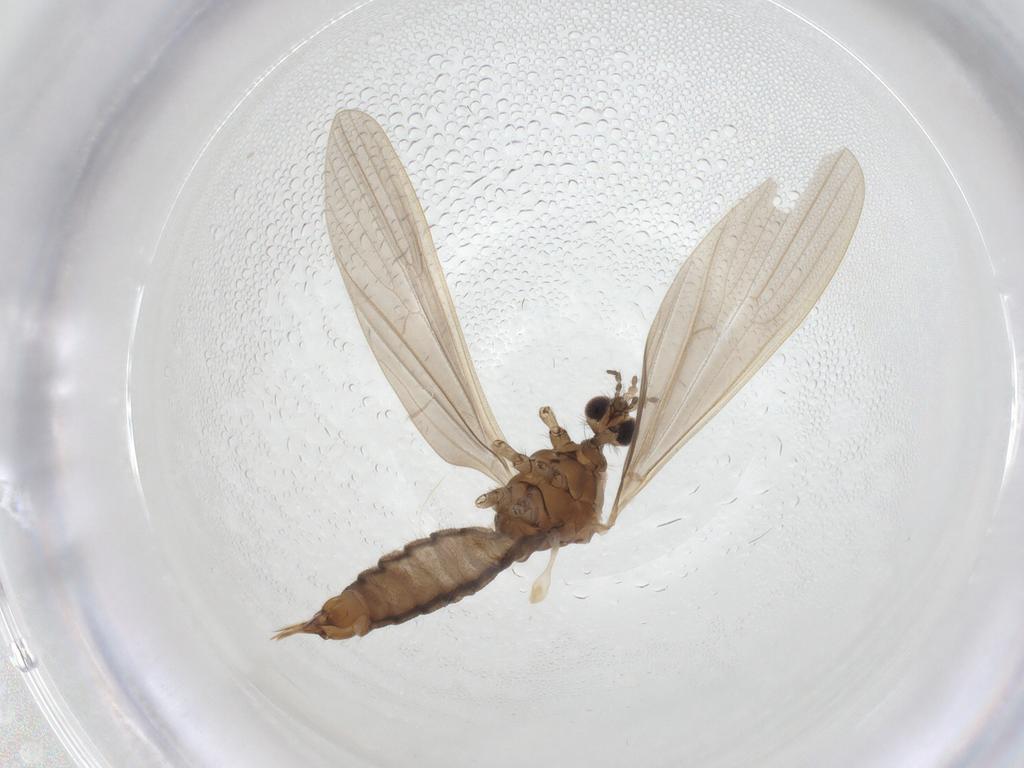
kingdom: Animalia
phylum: Arthropoda
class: Insecta
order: Diptera
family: Limoniidae
